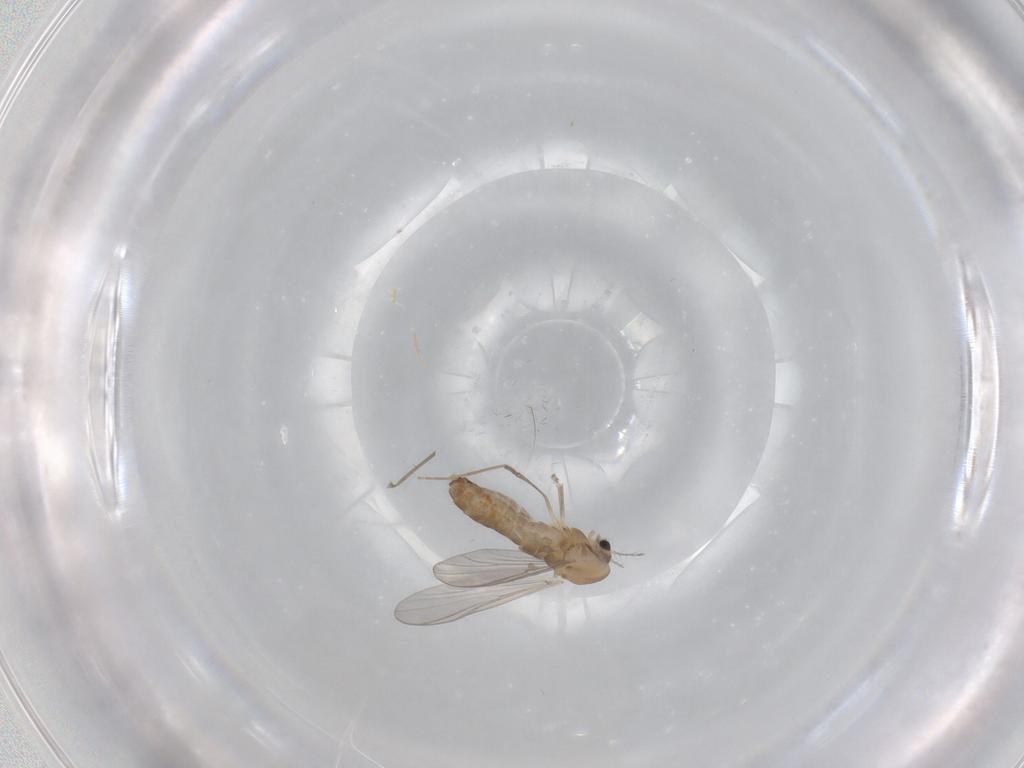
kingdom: Animalia
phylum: Arthropoda
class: Insecta
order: Diptera
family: Chironomidae
